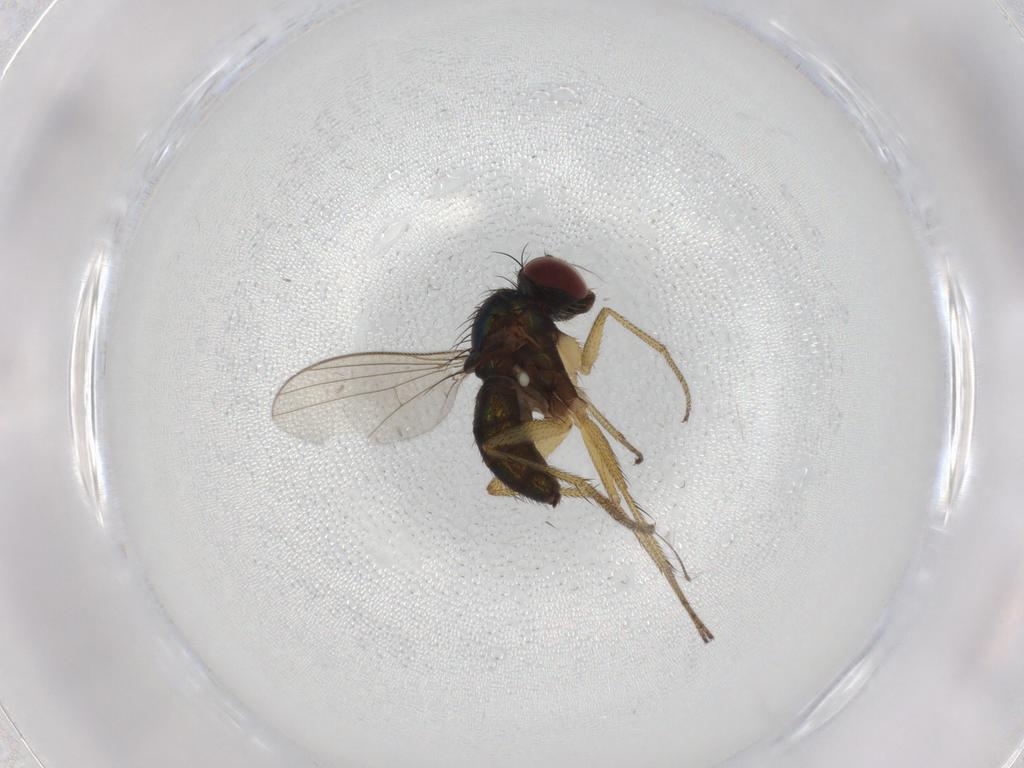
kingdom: Animalia
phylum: Arthropoda
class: Insecta
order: Diptera
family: Chironomidae
